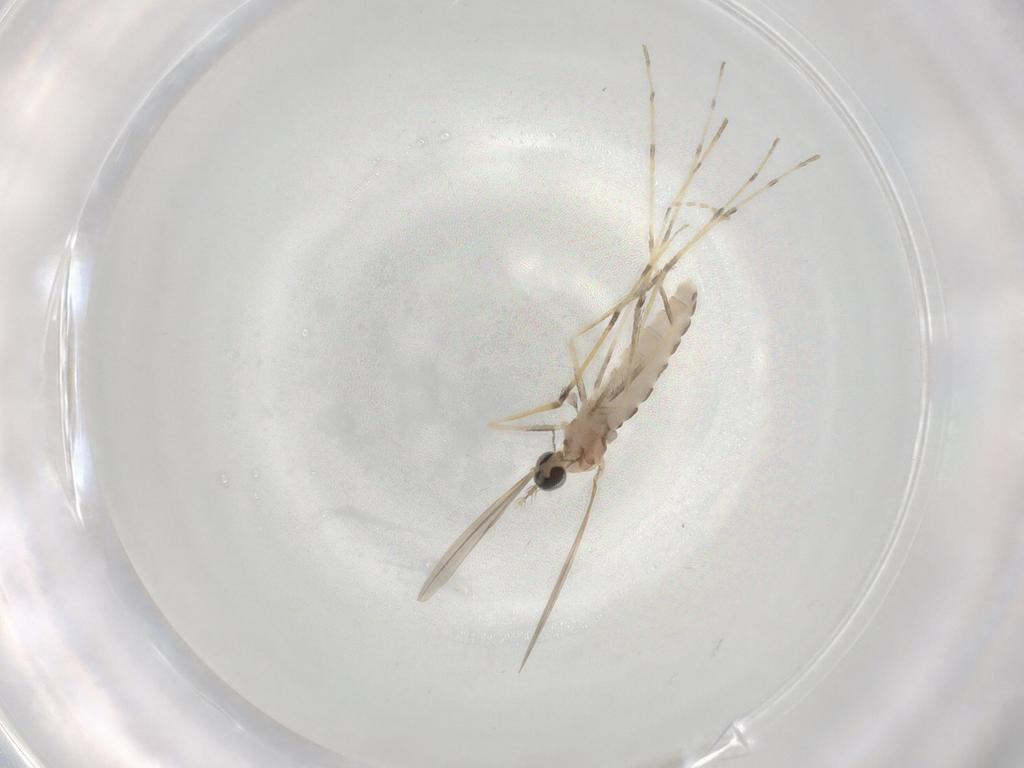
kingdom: Animalia
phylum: Arthropoda
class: Insecta
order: Diptera
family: Cecidomyiidae
